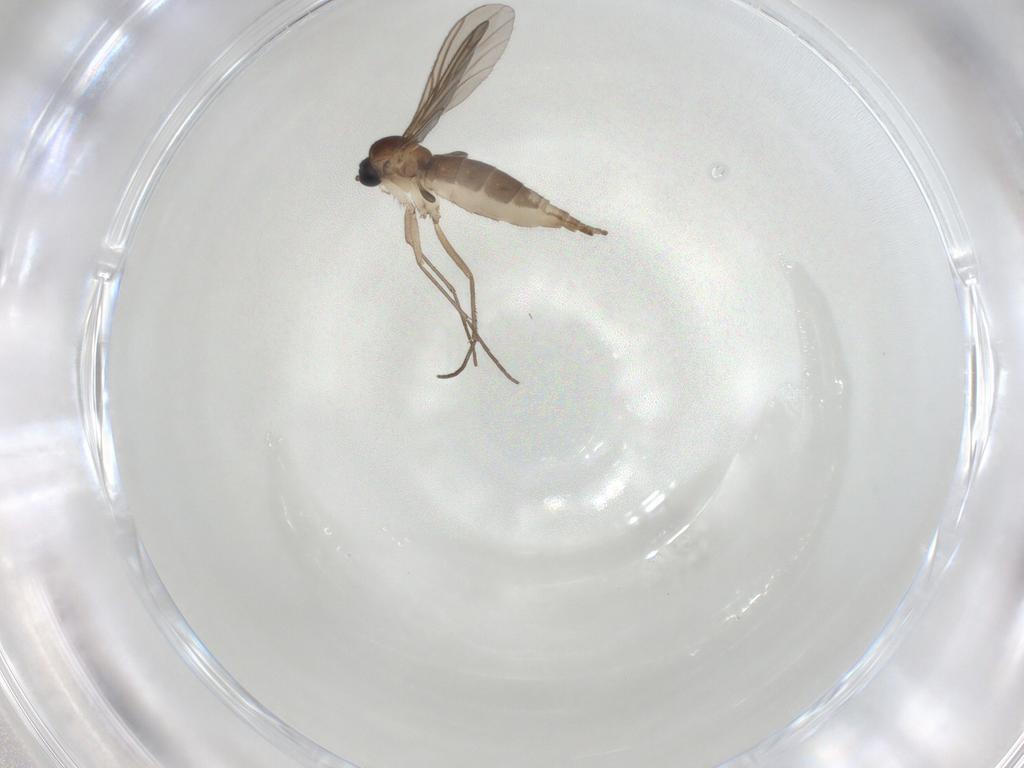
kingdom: Animalia
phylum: Arthropoda
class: Insecta
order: Diptera
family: Sciaridae
